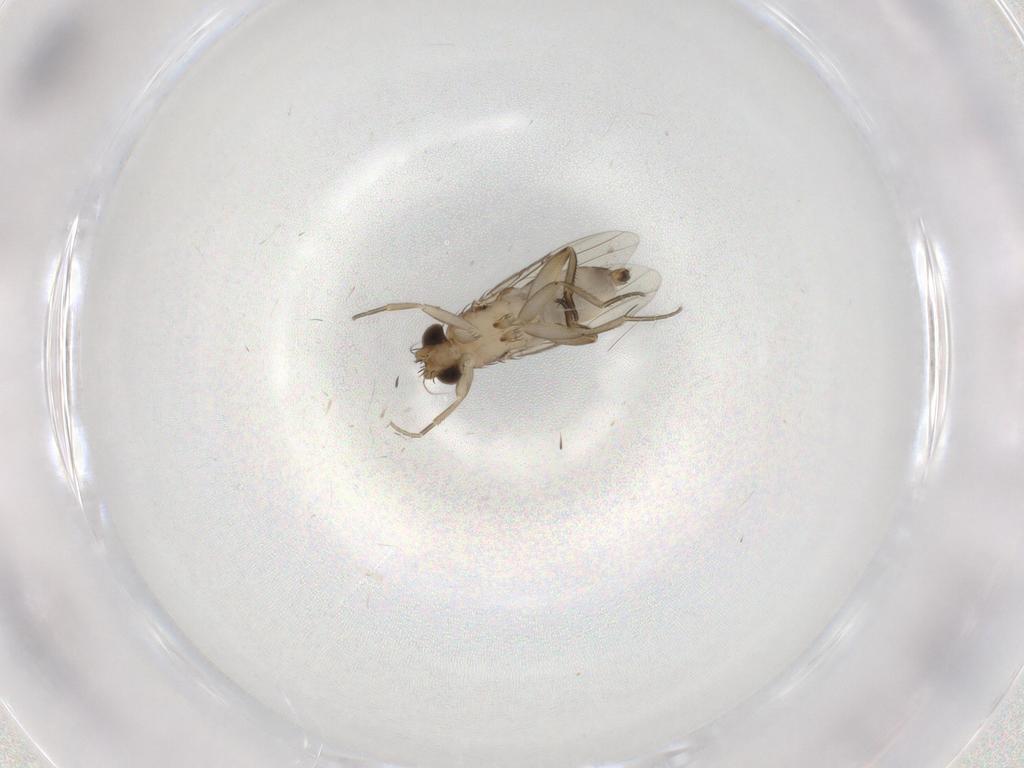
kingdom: Animalia
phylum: Arthropoda
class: Insecta
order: Diptera
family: Phoridae
